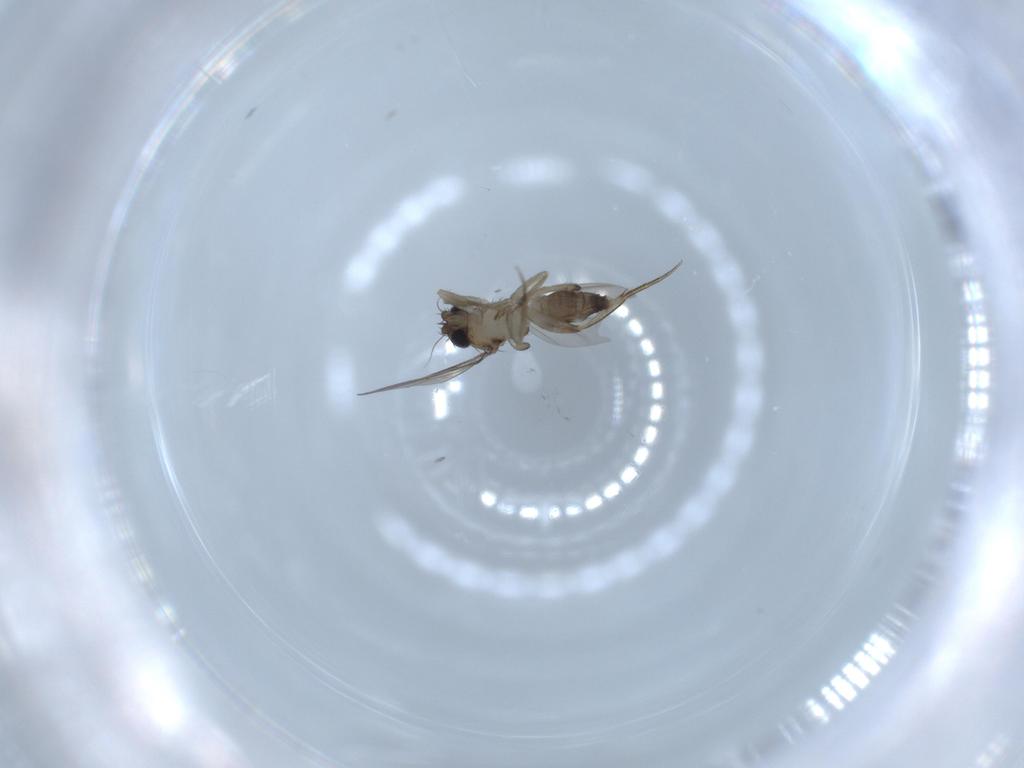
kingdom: Animalia
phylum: Arthropoda
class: Insecta
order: Diptera
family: Phoridae
